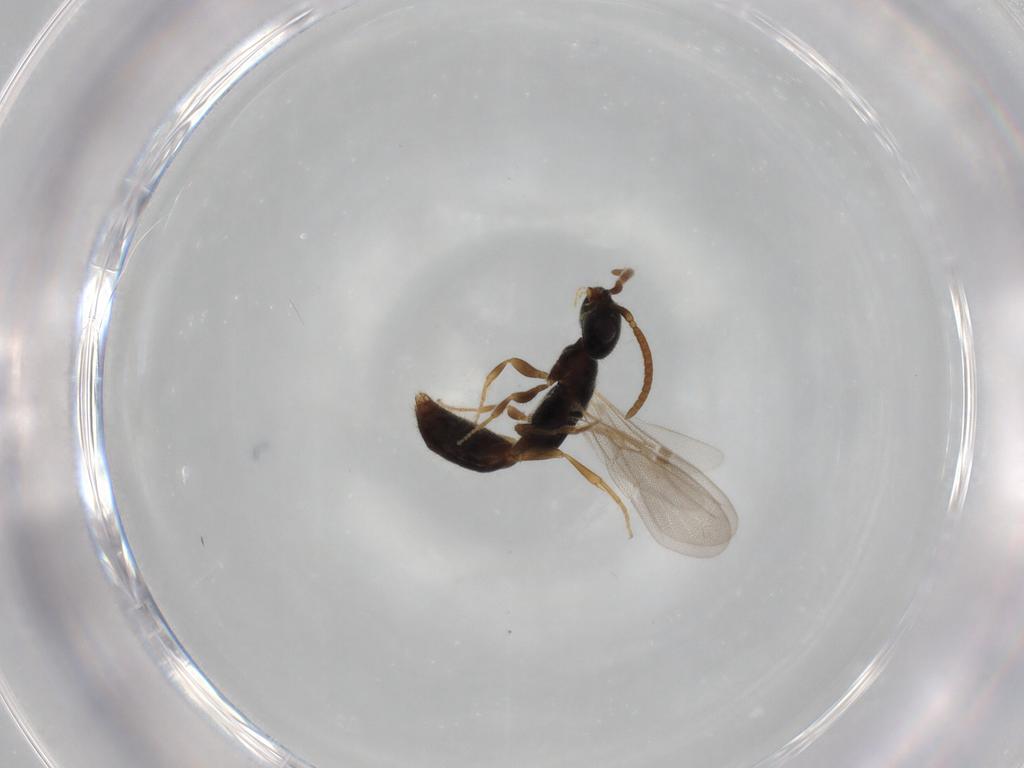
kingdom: Animalia
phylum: Arthropoda
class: Insecta
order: Hymenoptera
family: Bethylidae
